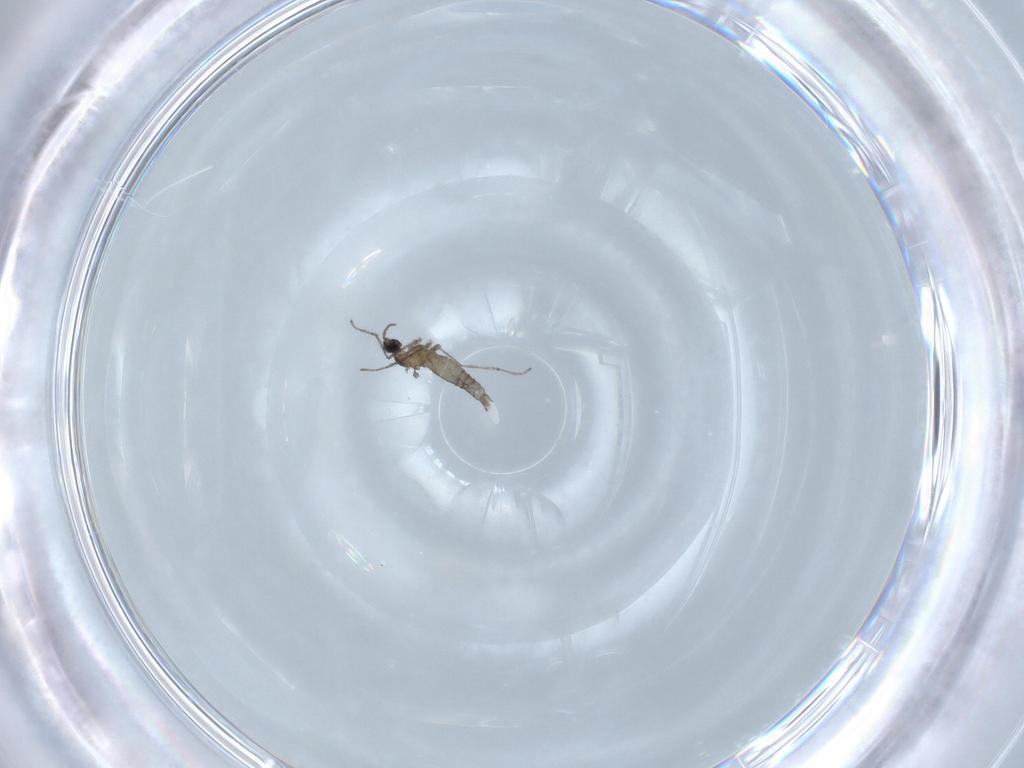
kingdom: Animalia
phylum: Arthropoda
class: Insecta
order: Diptera
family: Cecidomyiidae
